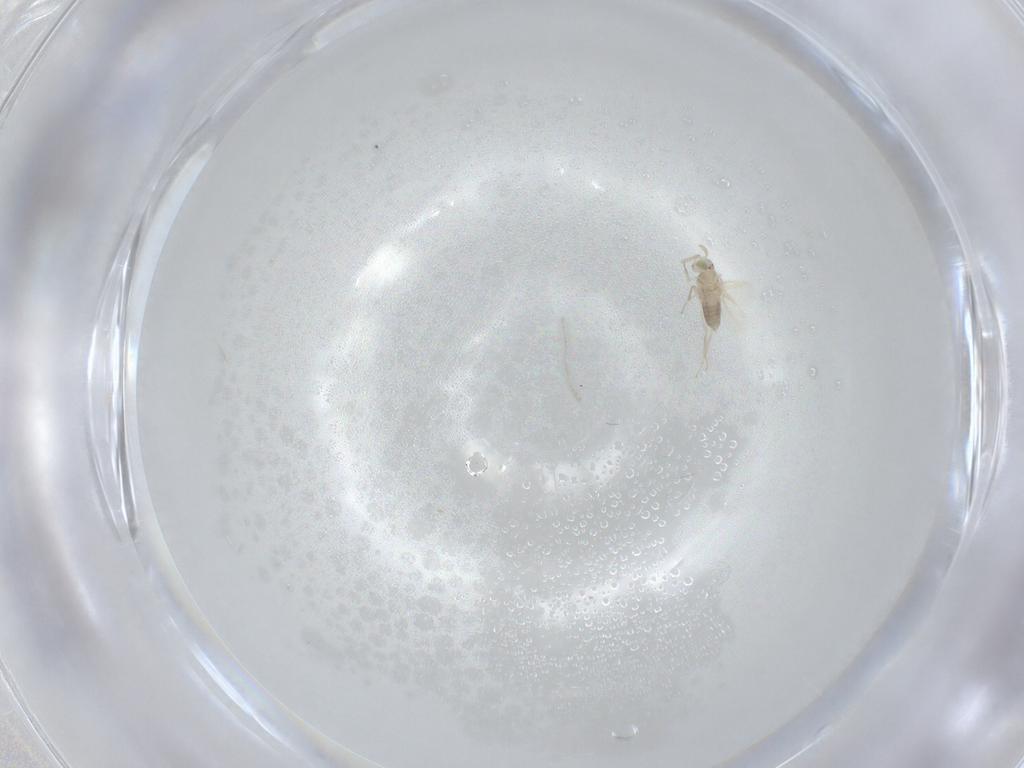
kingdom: Animalia
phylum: Arthropoda
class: Insecta
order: Hymenoptera
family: Aphelinidae
